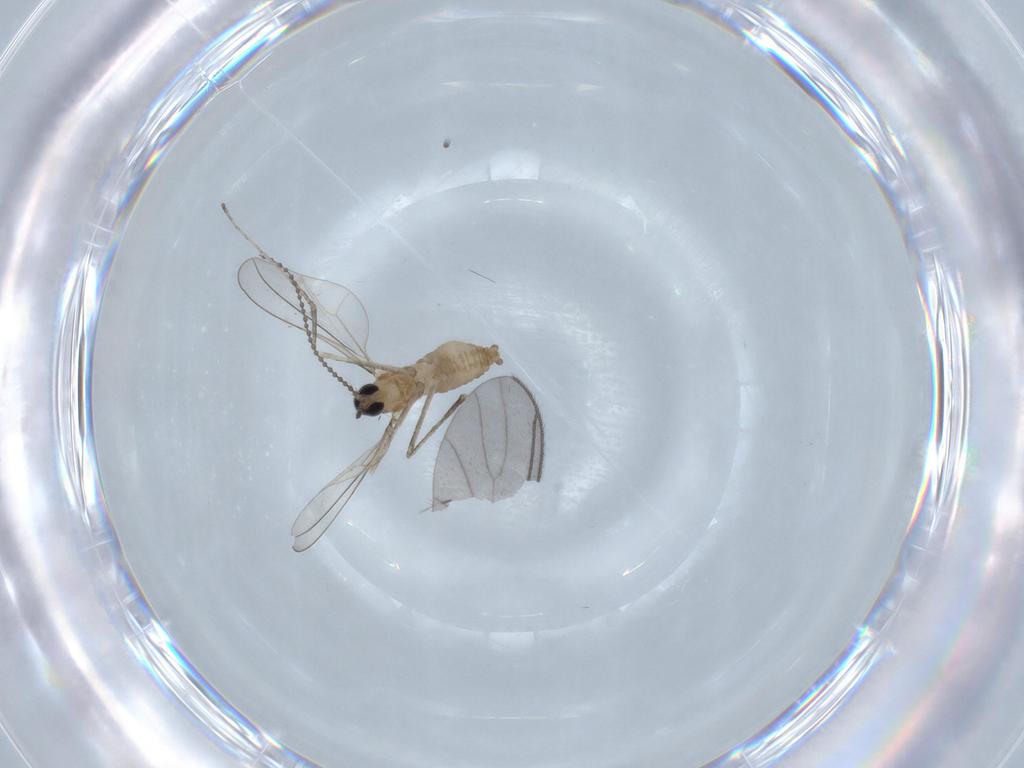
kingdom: Animalia
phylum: Arthropoda
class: Insecta
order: Diptera
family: Cecidomyiidae
